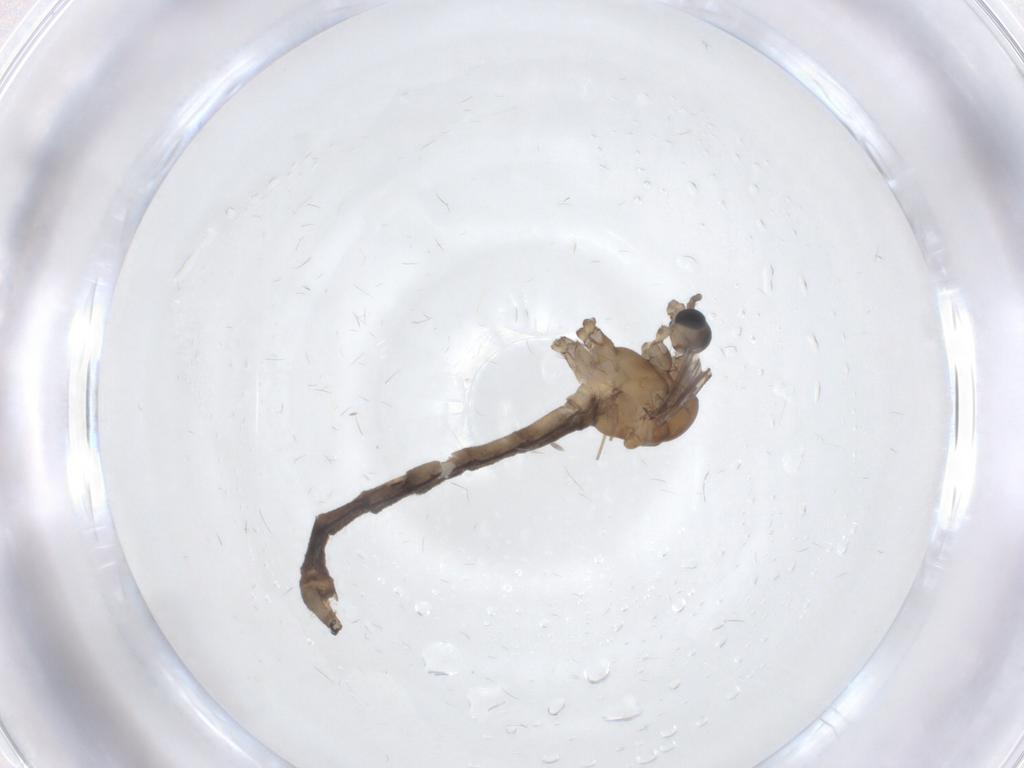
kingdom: Animalia
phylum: Arthropoda
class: Insecta
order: Diptera
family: Limoniidae
